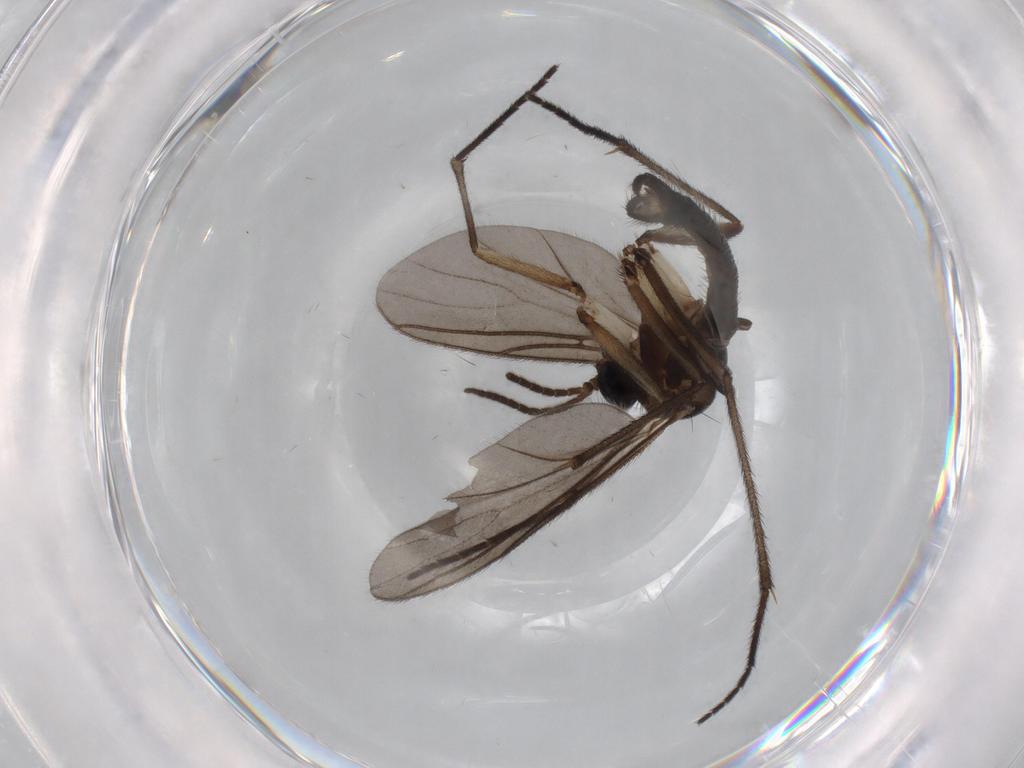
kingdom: Animalia
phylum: Arthropoda
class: Insecta
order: Diptera
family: Sciaridae
